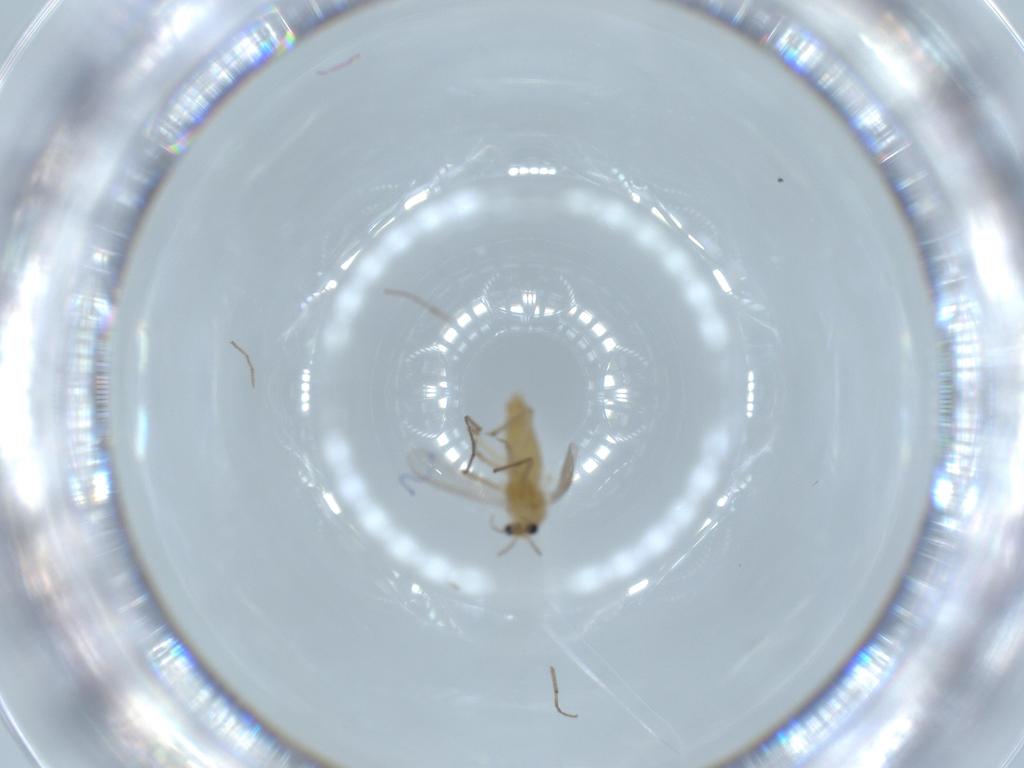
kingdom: Animalia
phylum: Arthropoda
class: Insecta
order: Diptera
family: Chironomidae
